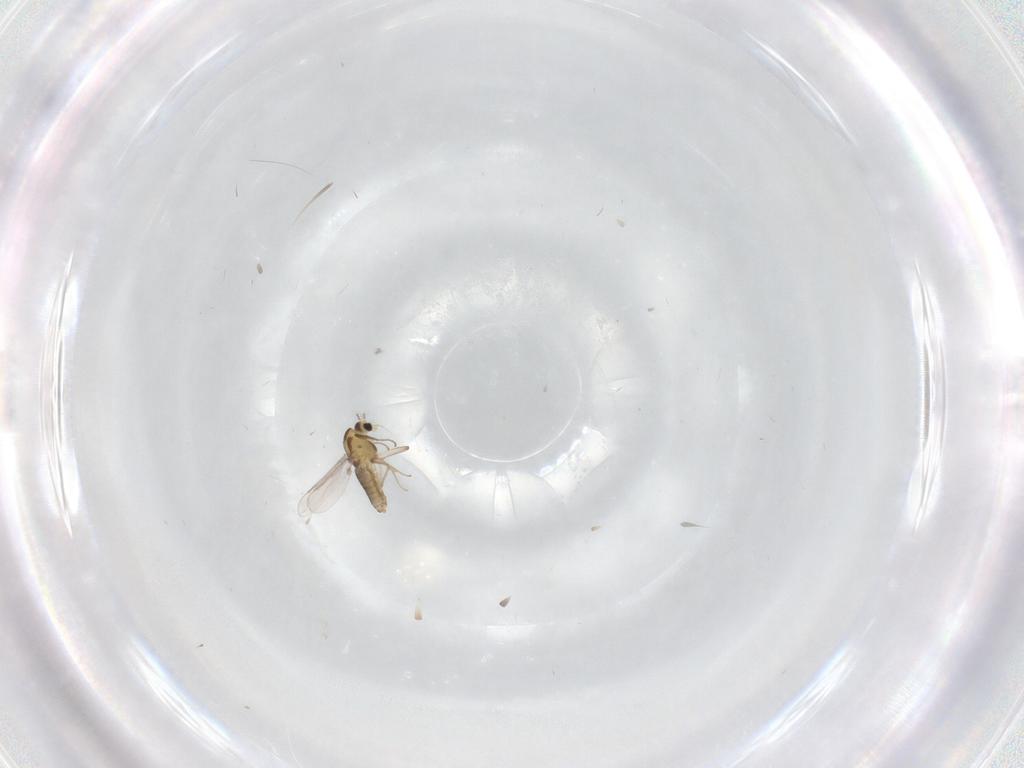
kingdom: Animalia
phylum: Arthropoda
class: Insecta
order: Diptera
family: Chironomidae
